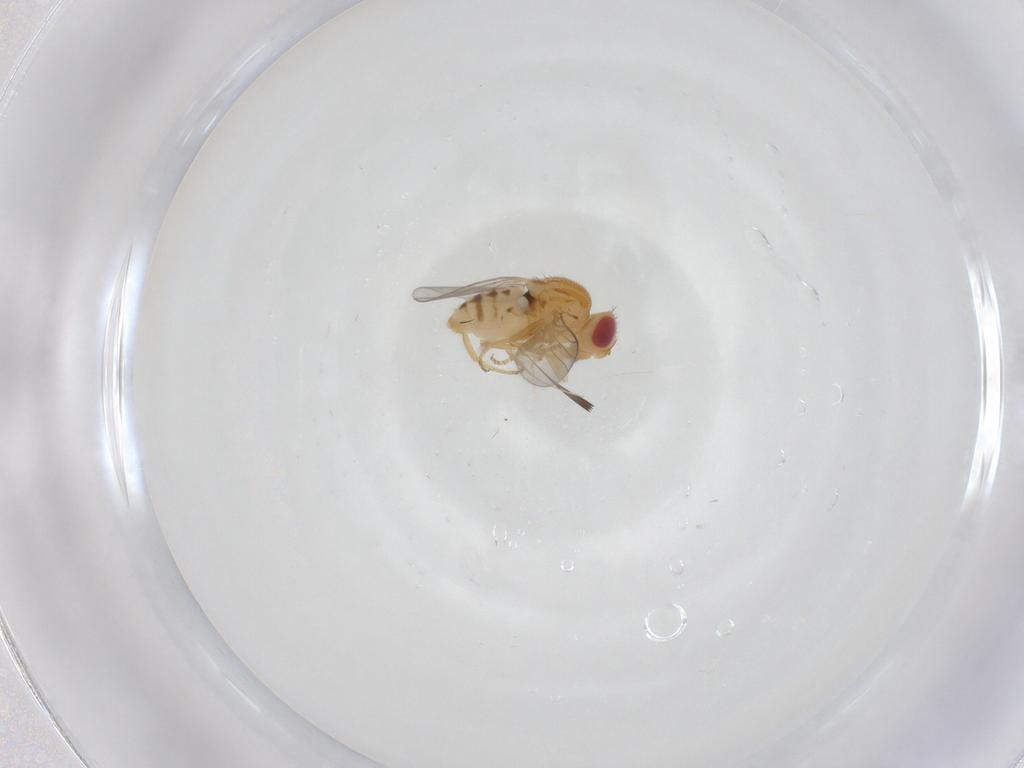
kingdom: Animalia
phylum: Arthropoda
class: Insecta
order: Diptera
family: Chloropidae
